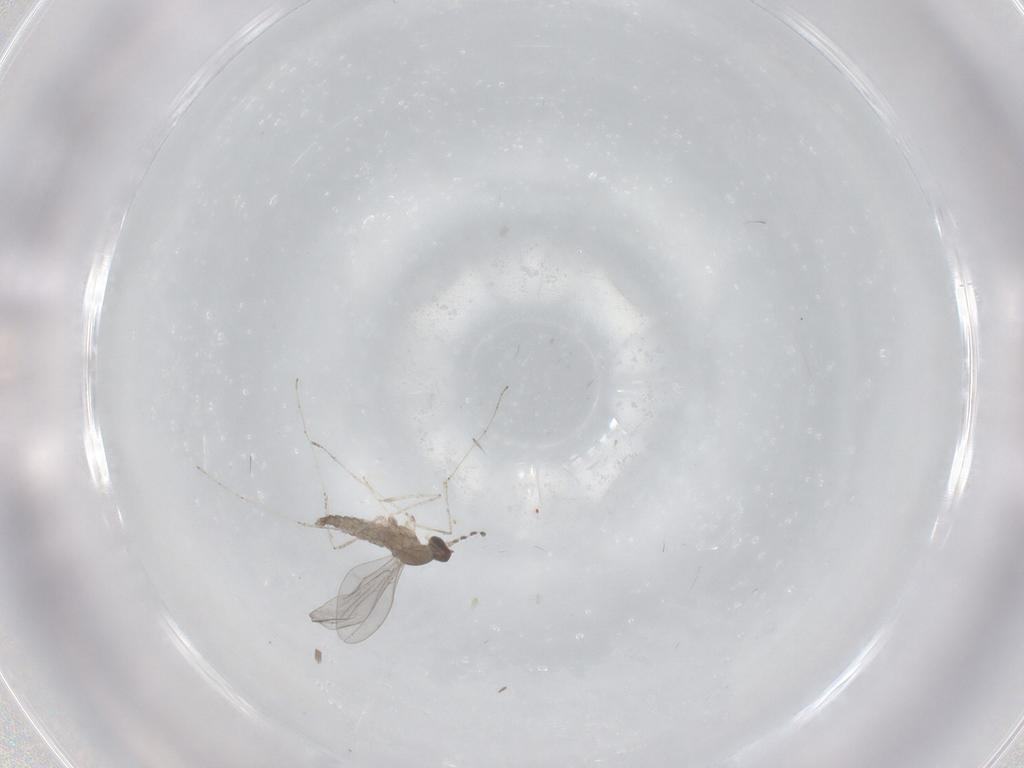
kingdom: Animalia
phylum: Arthropoda
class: Insecta
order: Diptera
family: Cecidomyiidae
